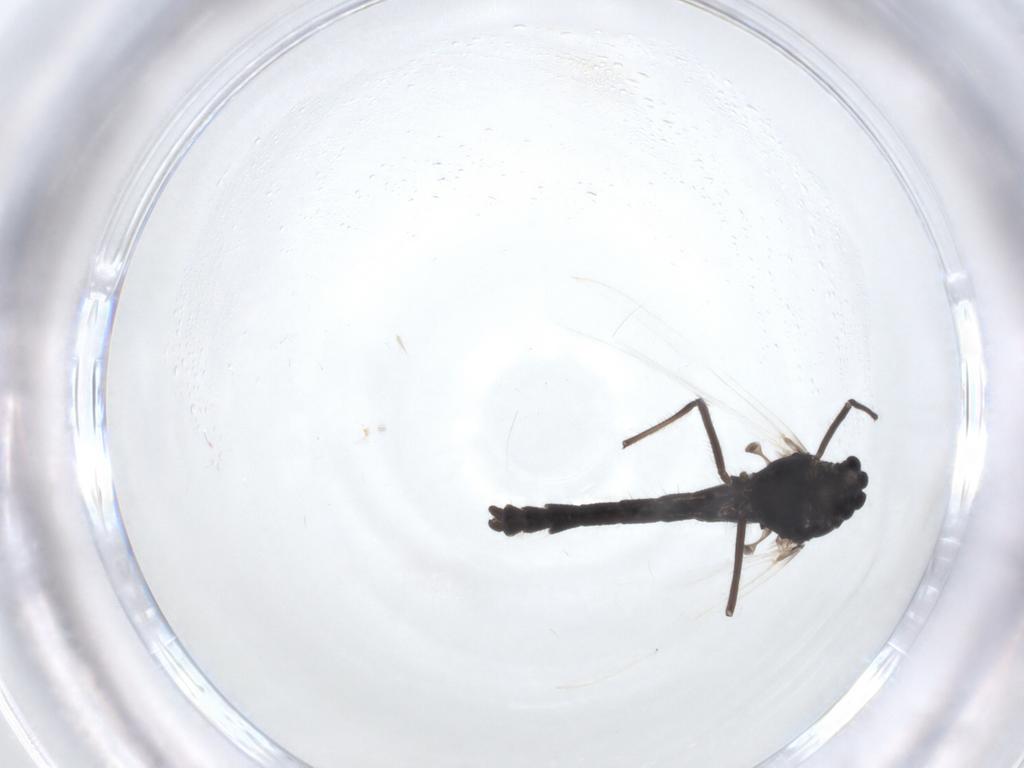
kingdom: Animalia
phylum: Arthropoda
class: Insecta
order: Diptera
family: Chironomidae
